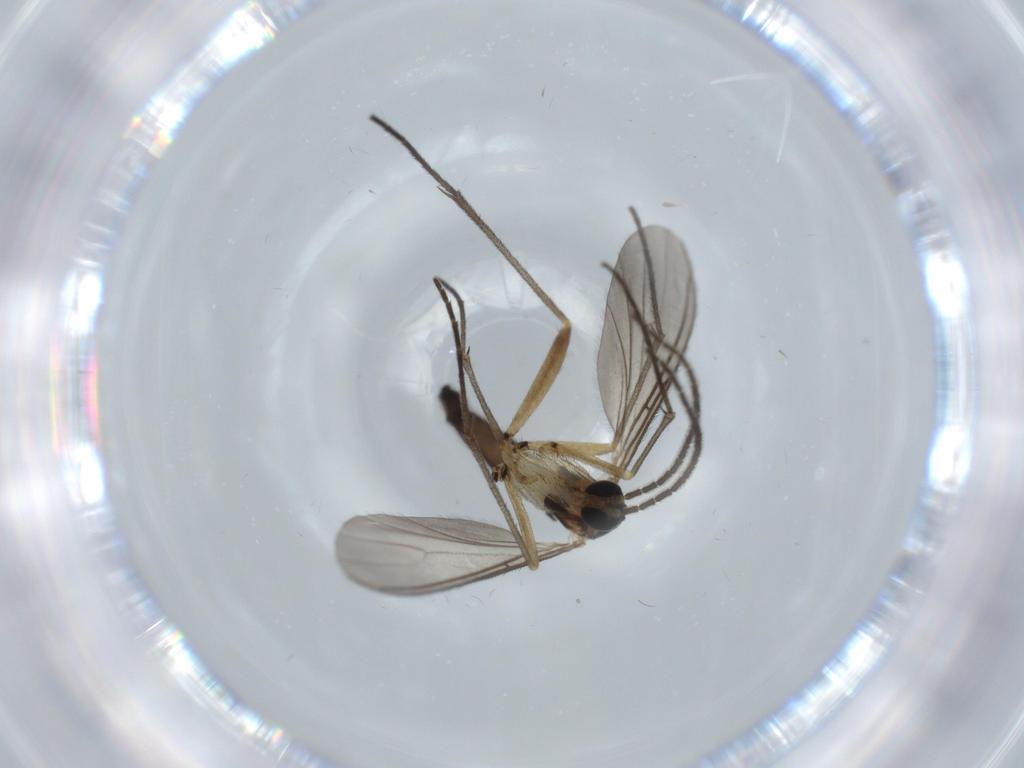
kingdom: Animalia
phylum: Arthropoda
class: Insecta
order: Diptera
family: Sciaridae
